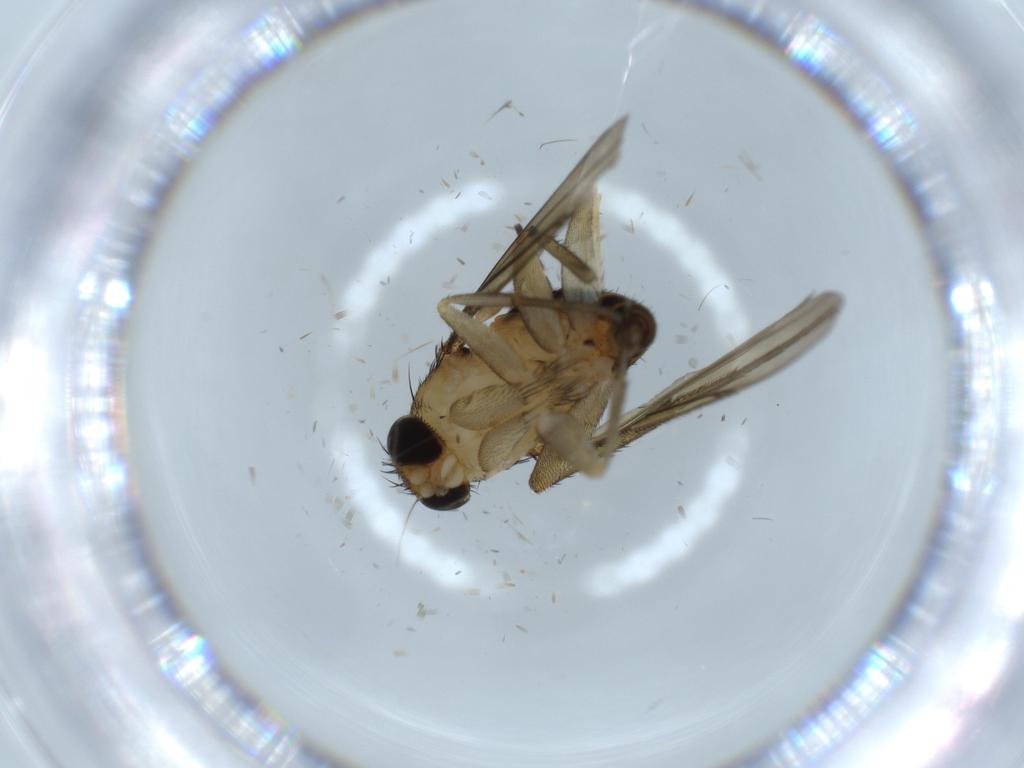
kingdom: Animalia
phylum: Arthropoda
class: Insecta
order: Diptera
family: Phoridae
